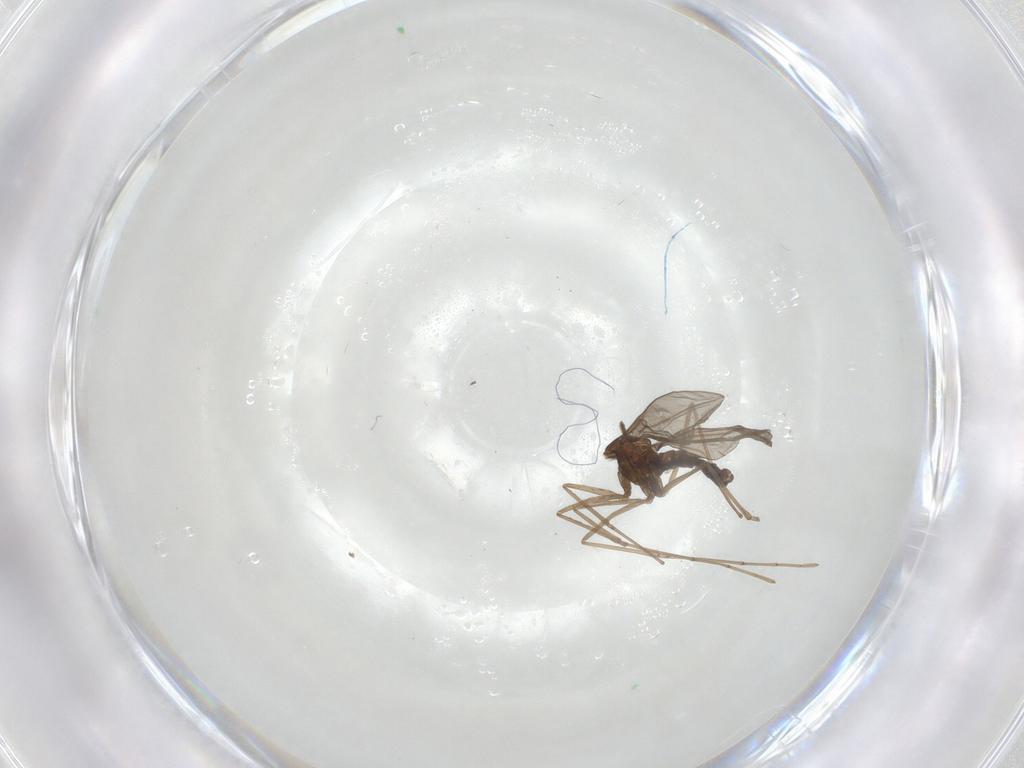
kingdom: Animalia
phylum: Arthropoda
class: Insecta
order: Diptera
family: Cecidomyiidae
